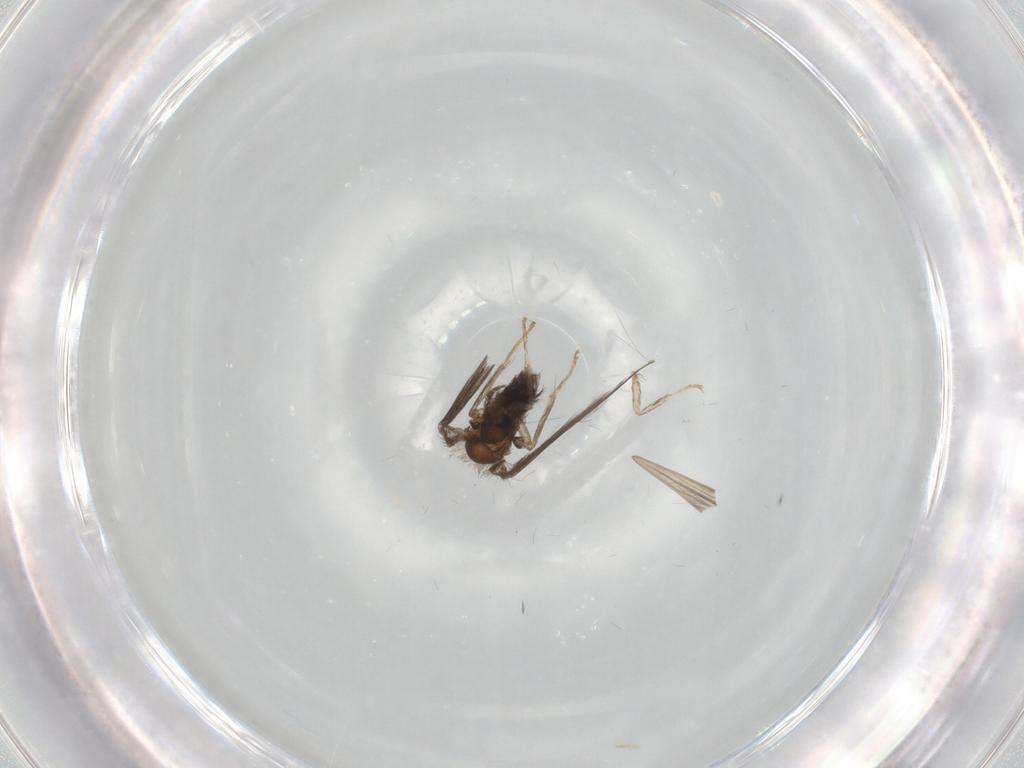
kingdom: Animalia
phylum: Arthropoda
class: Insecta
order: Diptera
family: Psychodidae
